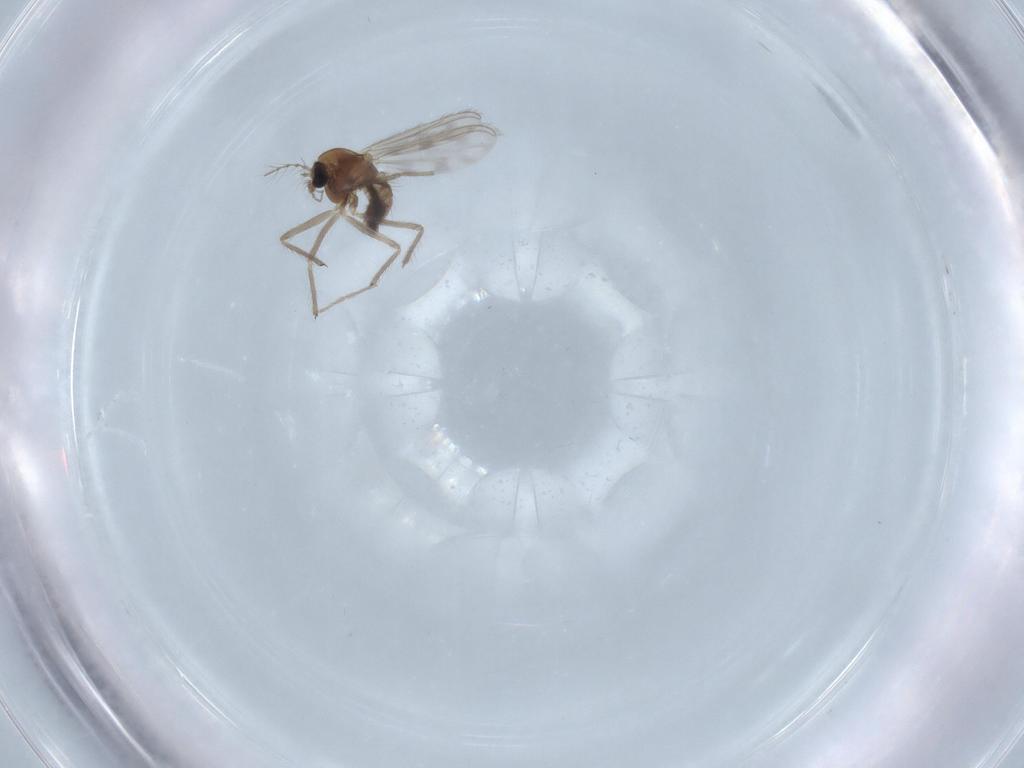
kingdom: Animalia
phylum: Arthropoda
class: Insecta
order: Diptera
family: Chironomidae
